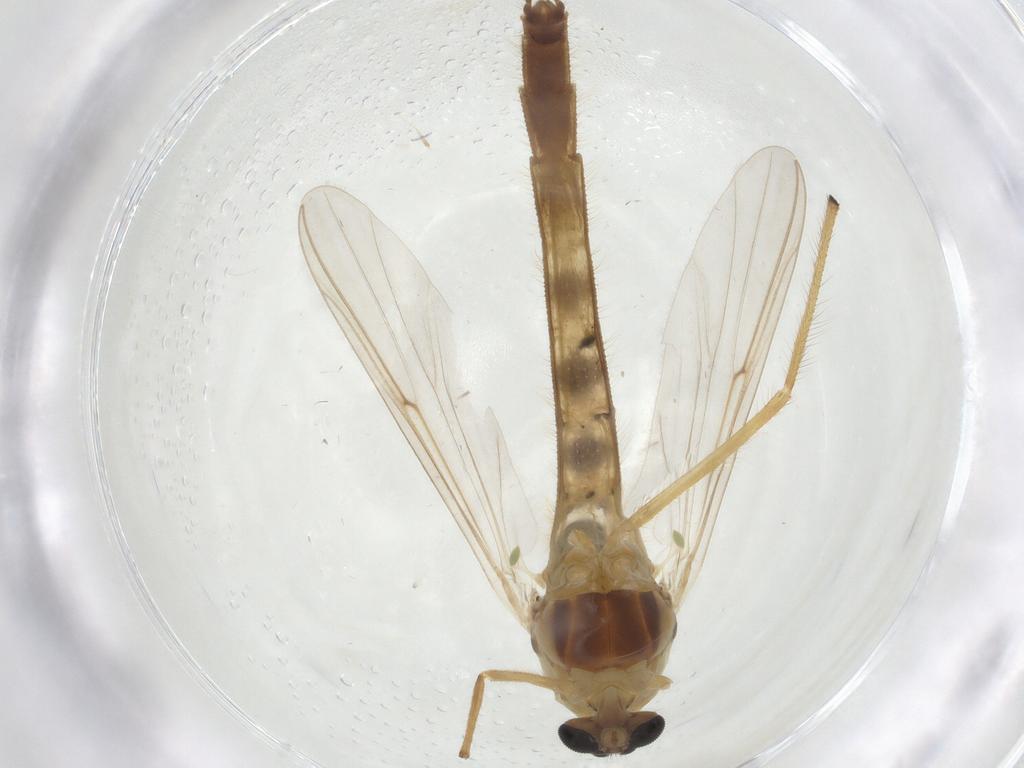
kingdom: Animalia
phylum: Arthropoda
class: Insecta
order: Diptera
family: Chironomidae
